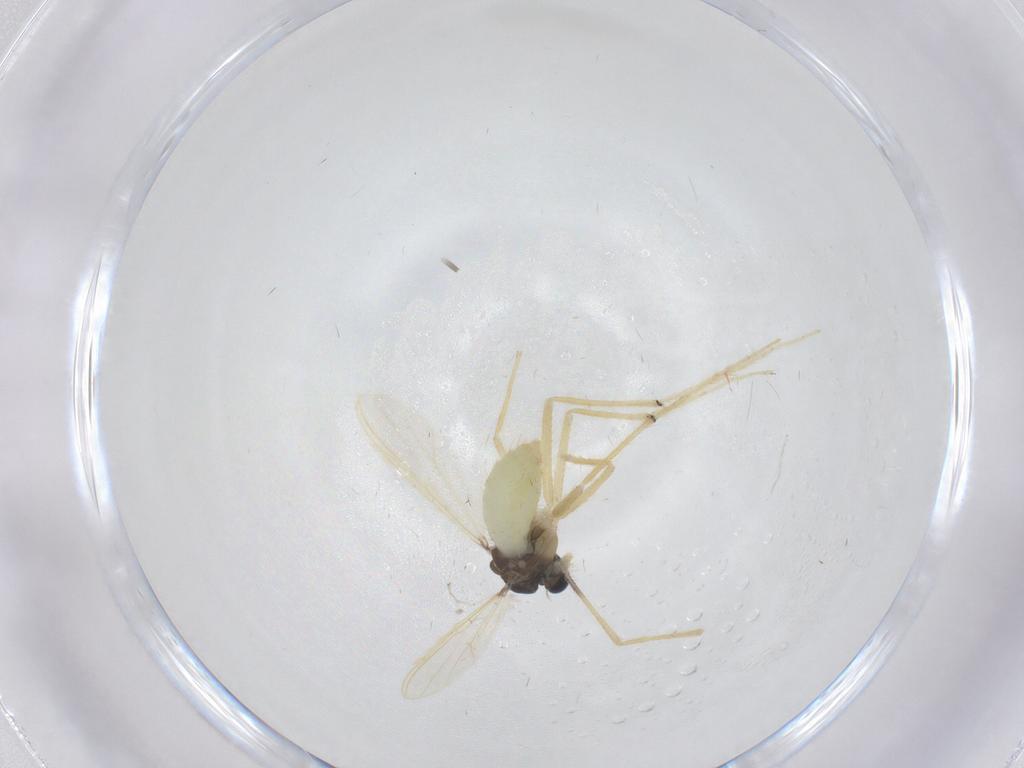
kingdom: Animalia
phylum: Arthropoda
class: Insecta
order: Diptera
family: Chironomidae
